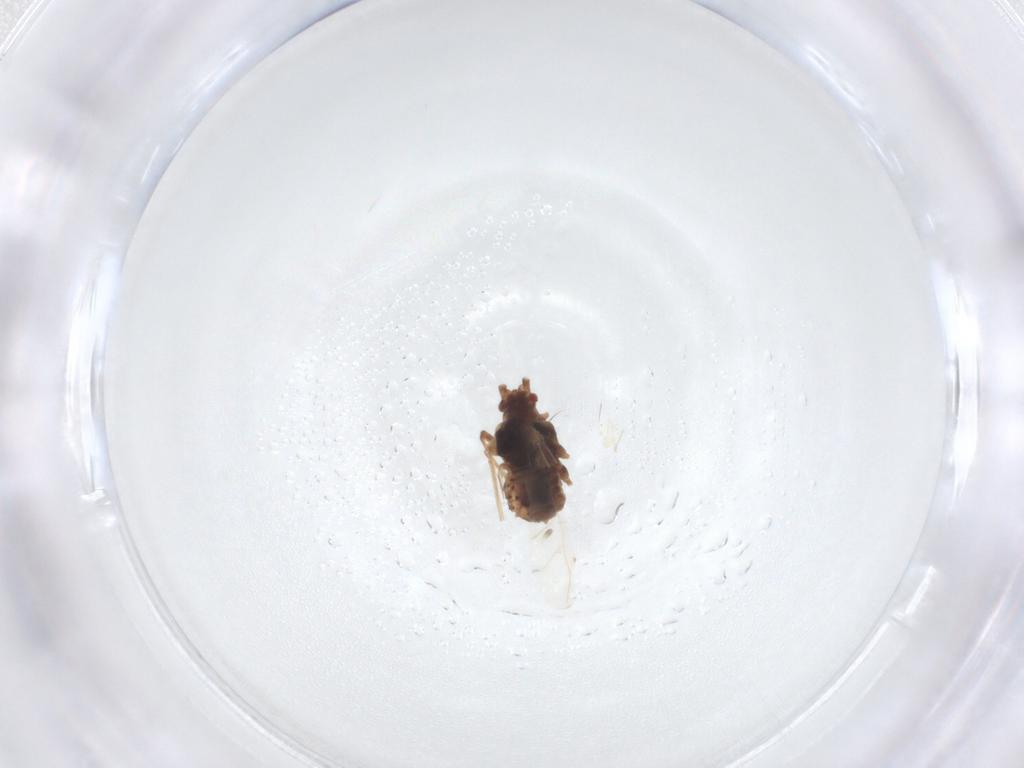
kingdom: Animalia
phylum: Arthropoda
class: Insecta
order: Hemiptera
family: Aphididae
